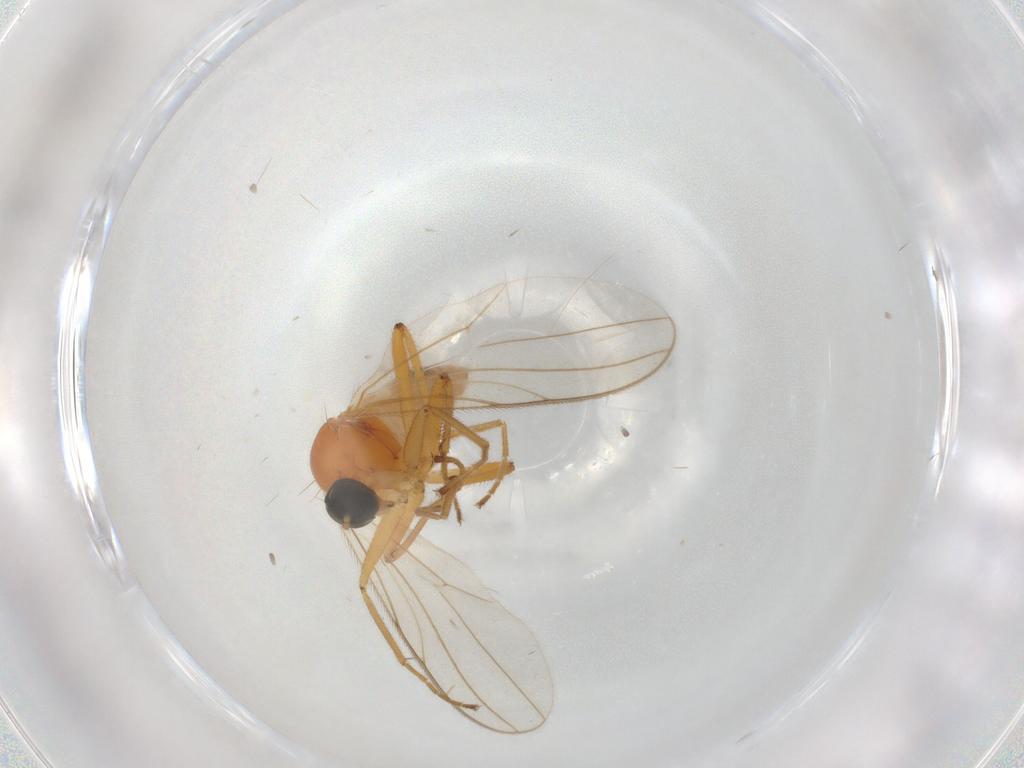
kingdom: Animalia
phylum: Arthropoda
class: Insecta
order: Diptera
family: Hybotidae
